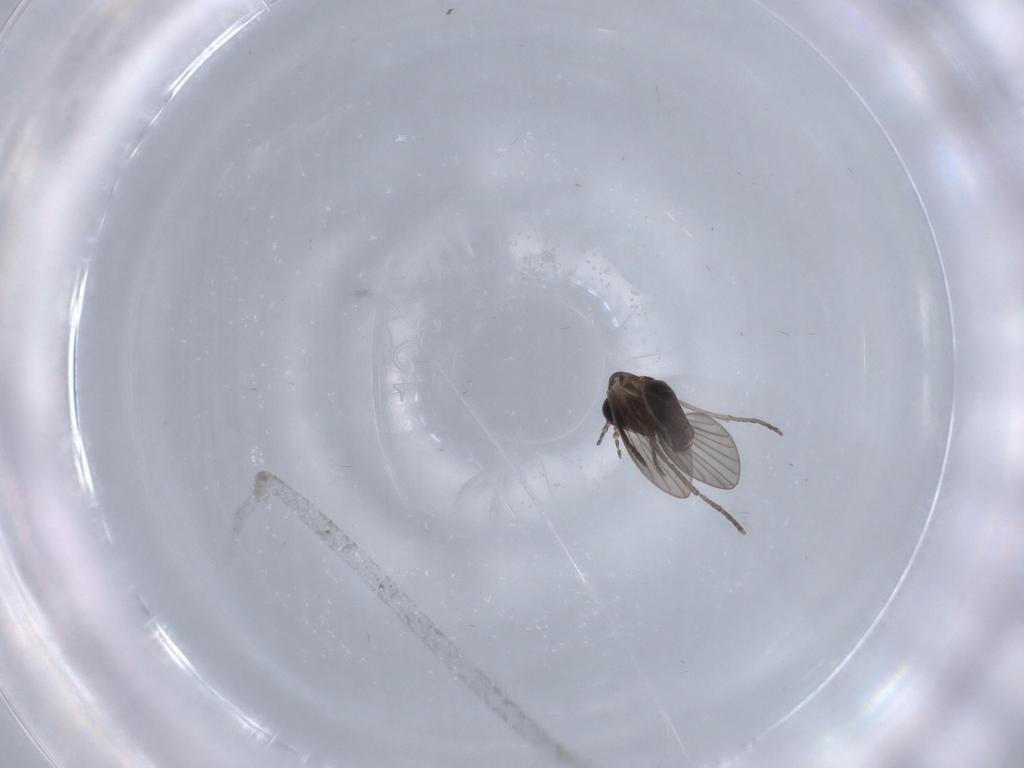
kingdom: Animalia
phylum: Arthropoda
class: Insecta
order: Diptera
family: Psychodidae
